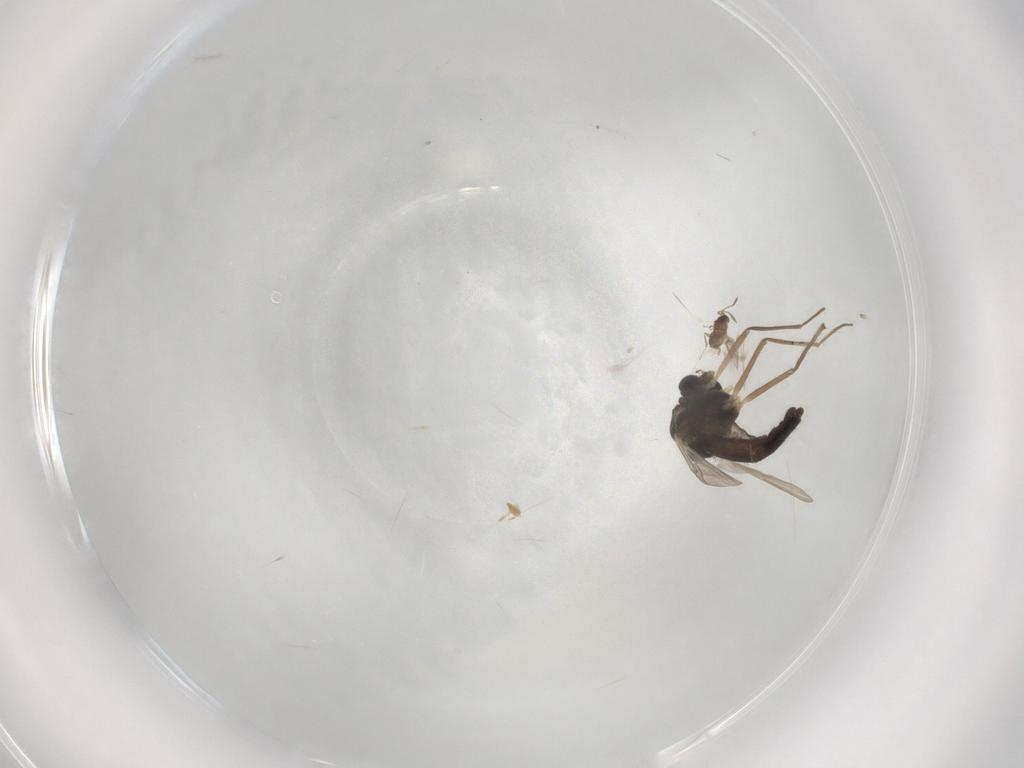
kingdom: Animalia
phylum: Arthropoda
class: Insecta
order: Diptera
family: Chironomidae
